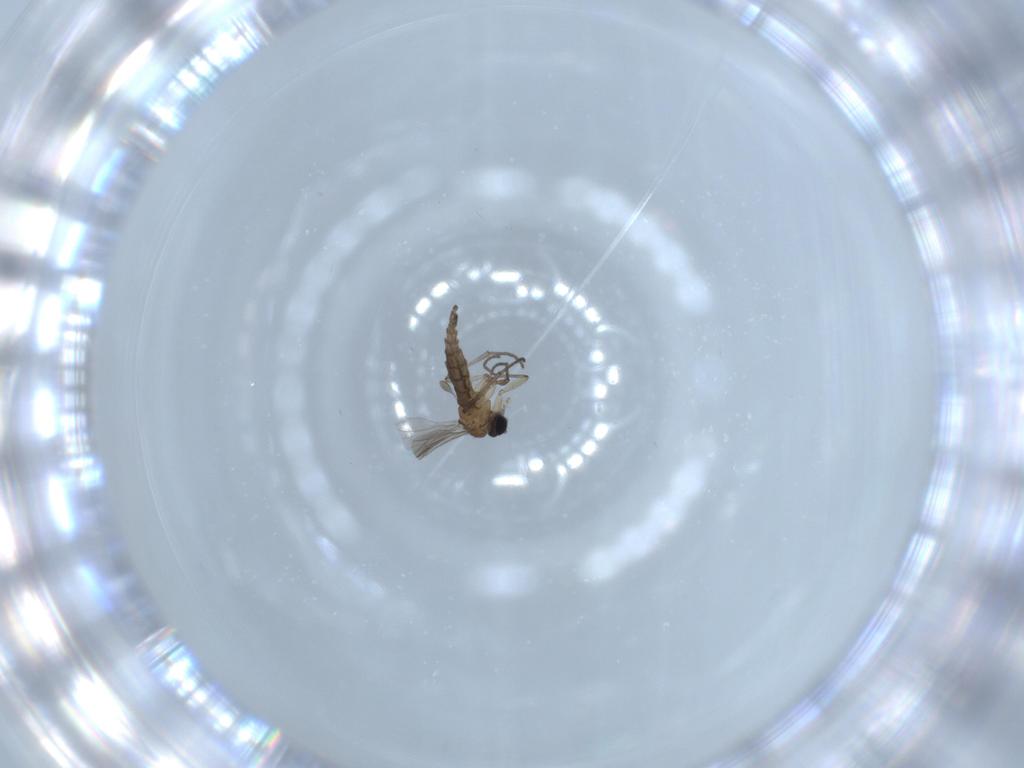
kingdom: Animalia
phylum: Arthropoda
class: Insecta
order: Diptera
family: Sciaridae
